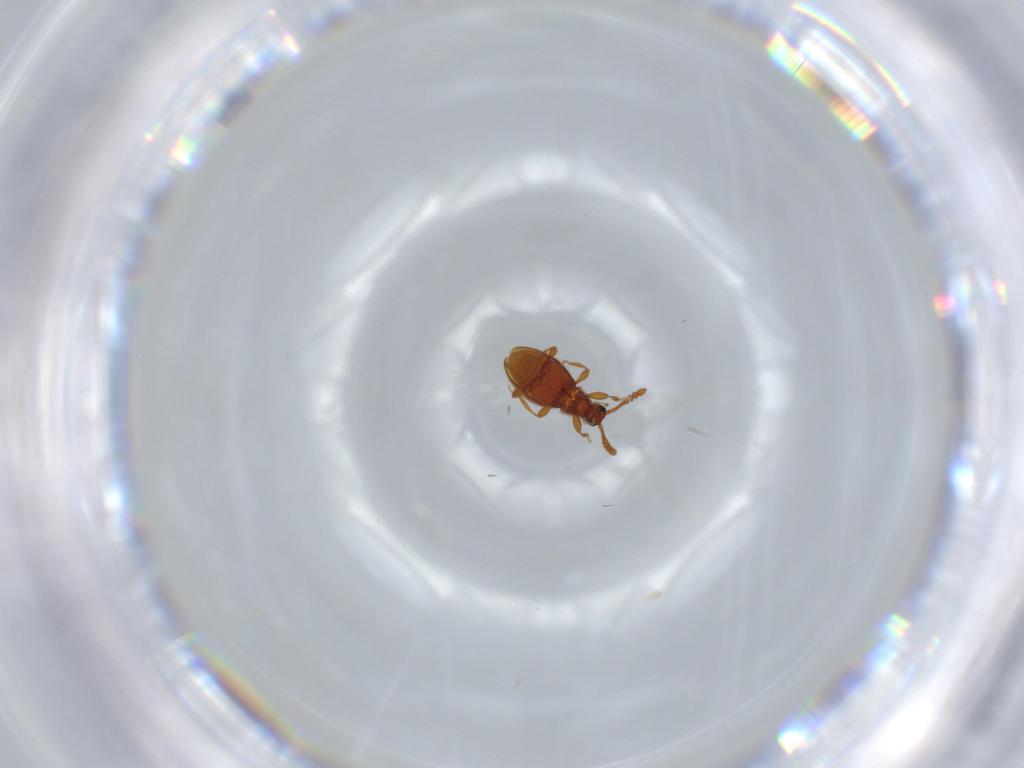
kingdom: Animalia
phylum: Arthropoda
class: Insecta
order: Coleoptera
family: Staphylinidae
